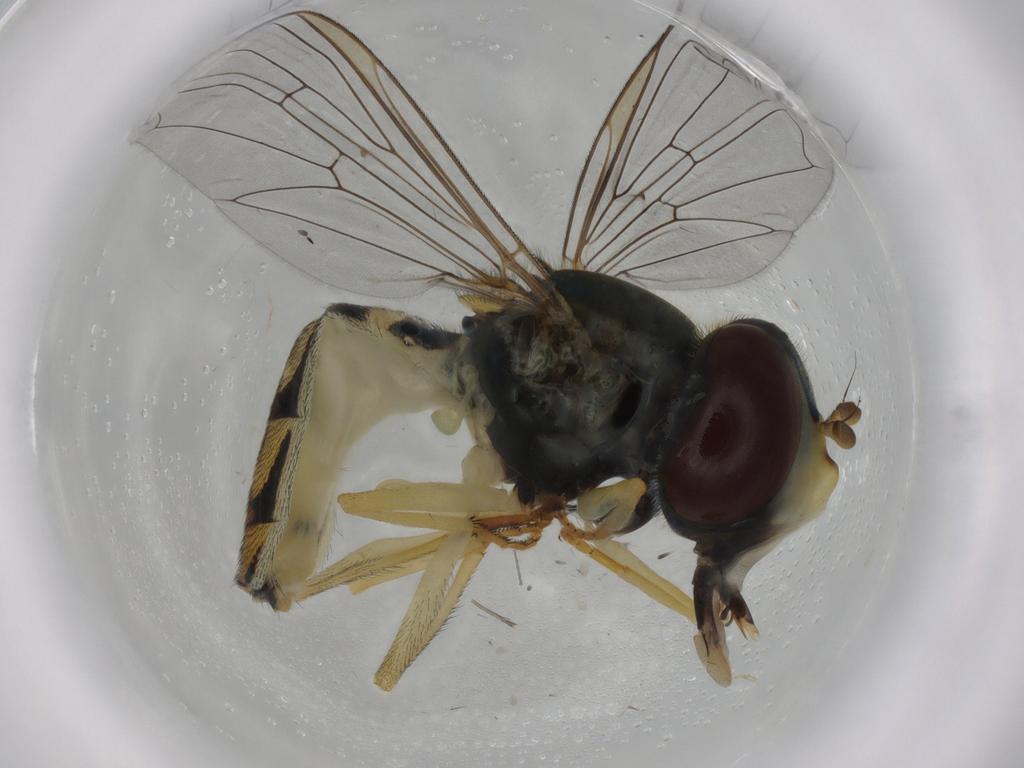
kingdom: Animalia
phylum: Arthropoda
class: Insecta
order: Diptera
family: Syrphidae
